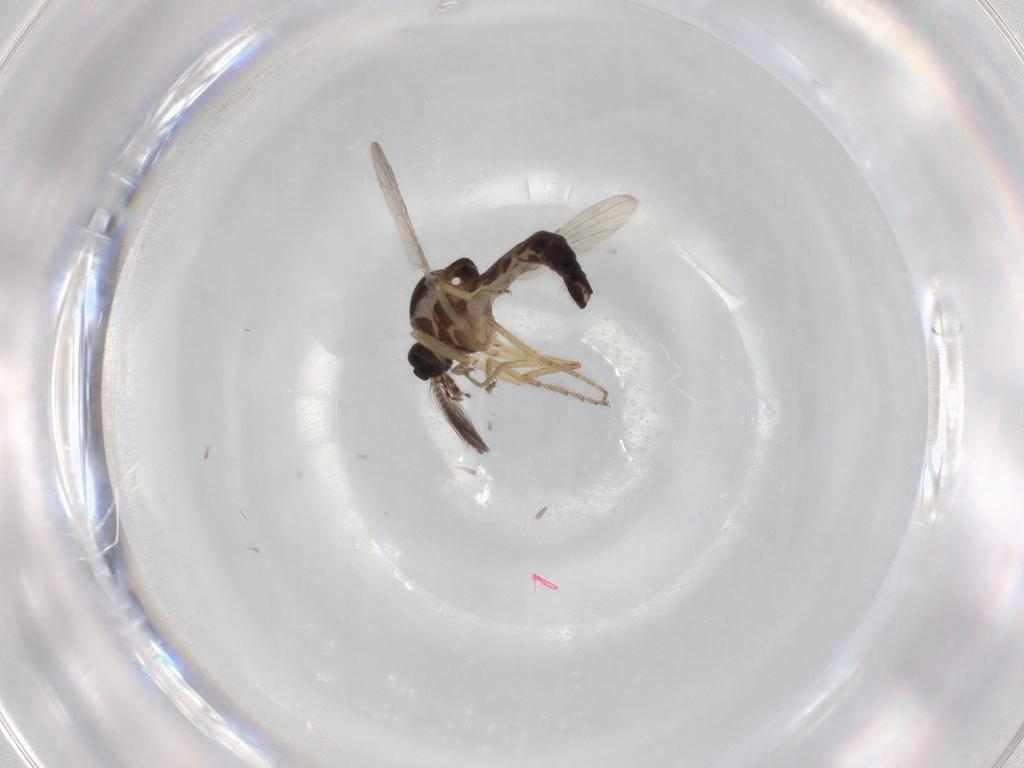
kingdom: Animalia
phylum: Arthropoda
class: Insecta
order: Diptera
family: Ceratopogonidae
